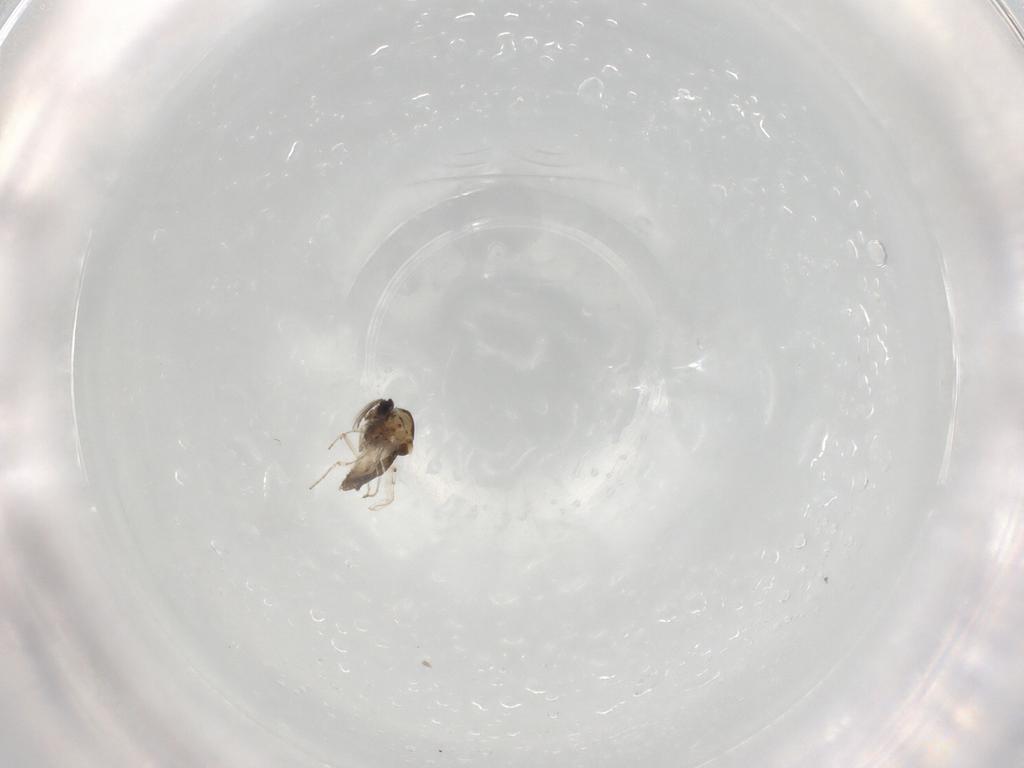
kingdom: Animalia
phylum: Arthropoda
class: Insecta
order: Diptera
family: Ceratopogonidae
